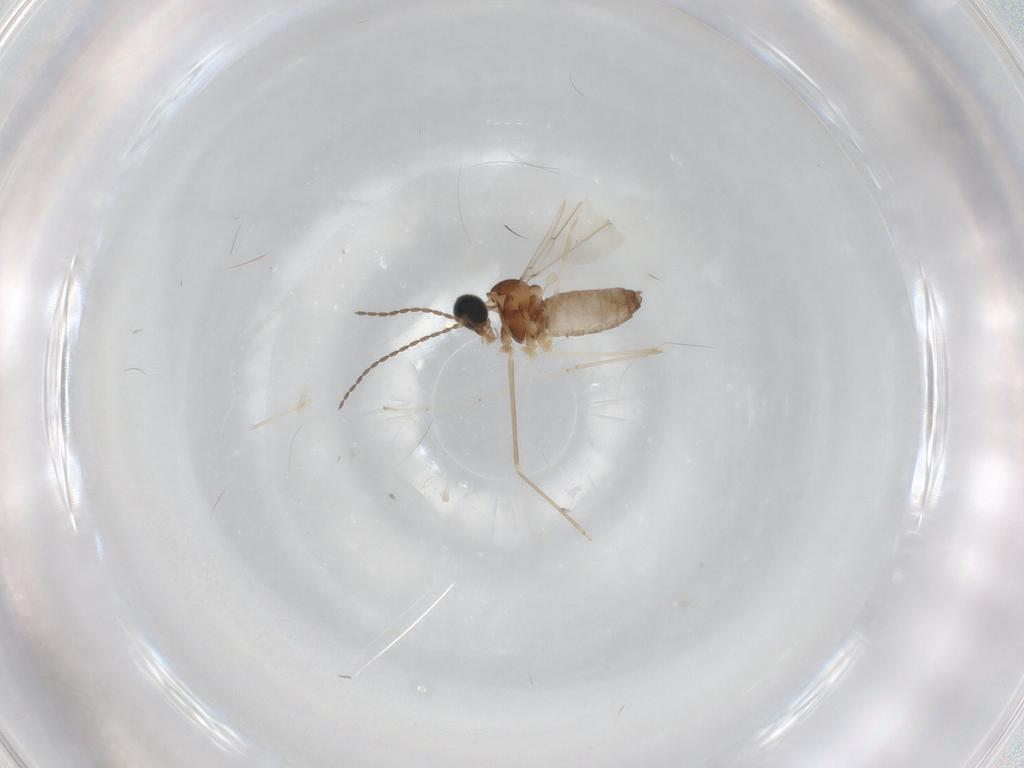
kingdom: Animalia
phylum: Arthropoda
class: Insecta
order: Diptera
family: Cecidomyiidae
